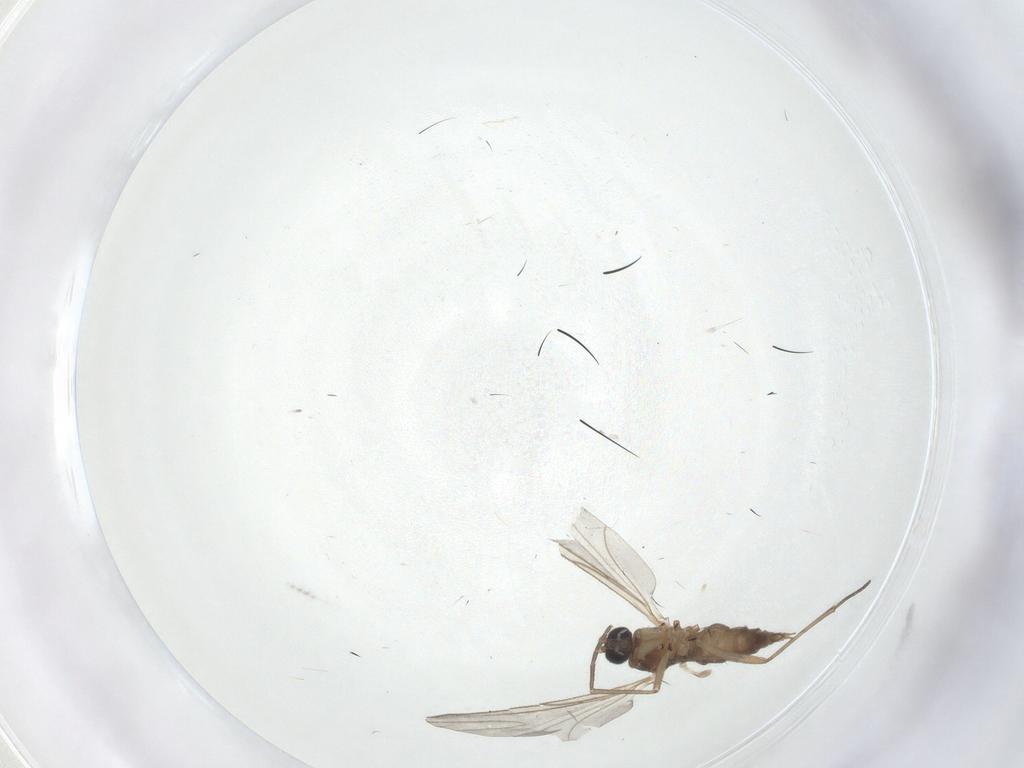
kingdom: Animalia
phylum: Arthropoda
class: Insecta
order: Diptera
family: Sciaridae
